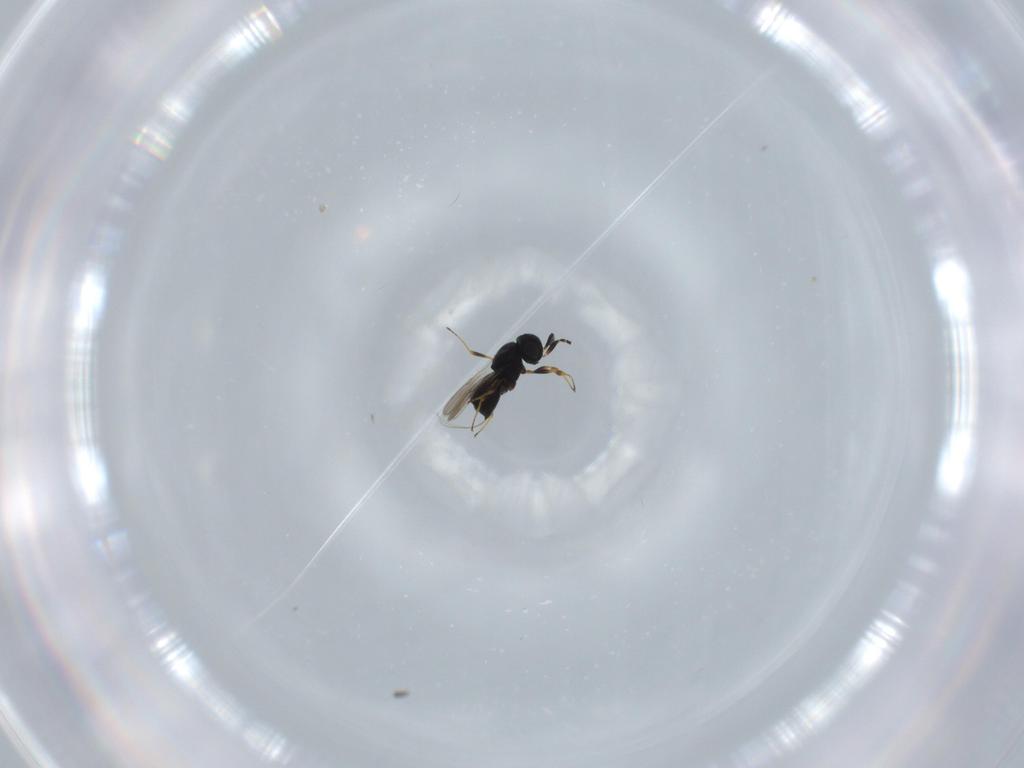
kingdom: Animalia
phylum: Arthropoda
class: Insecta
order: Hymenoptera
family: Scelionidae
